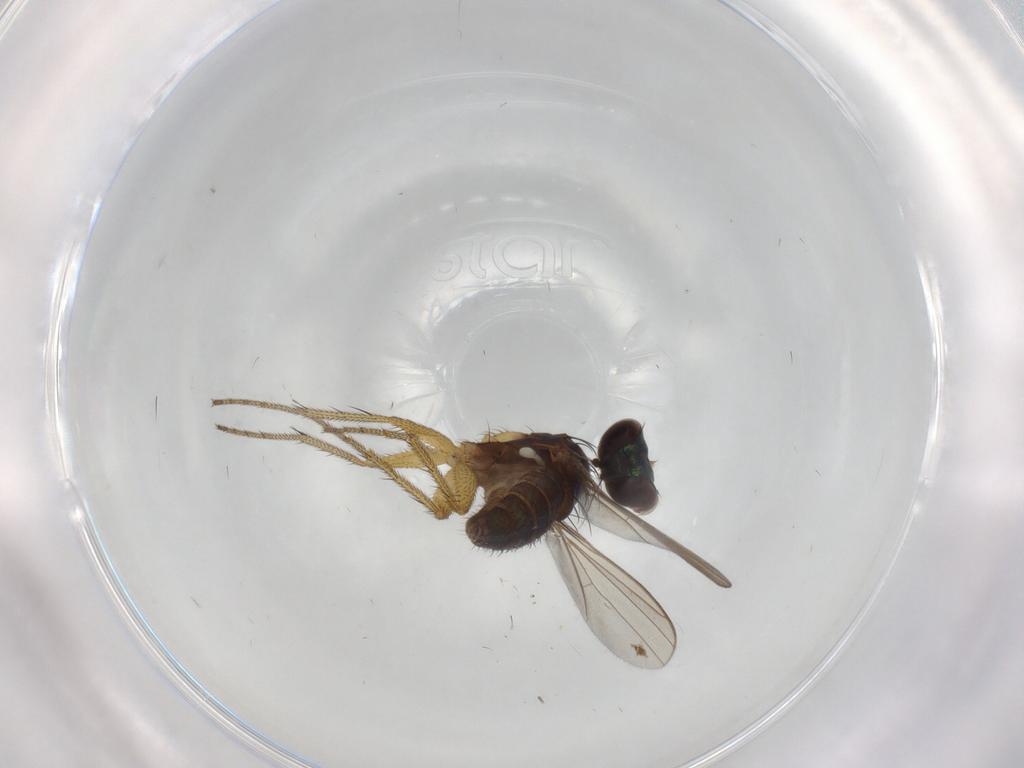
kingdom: Animalia
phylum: Arthropoda
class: Insecta
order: Diptera
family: Dolichopodidae
